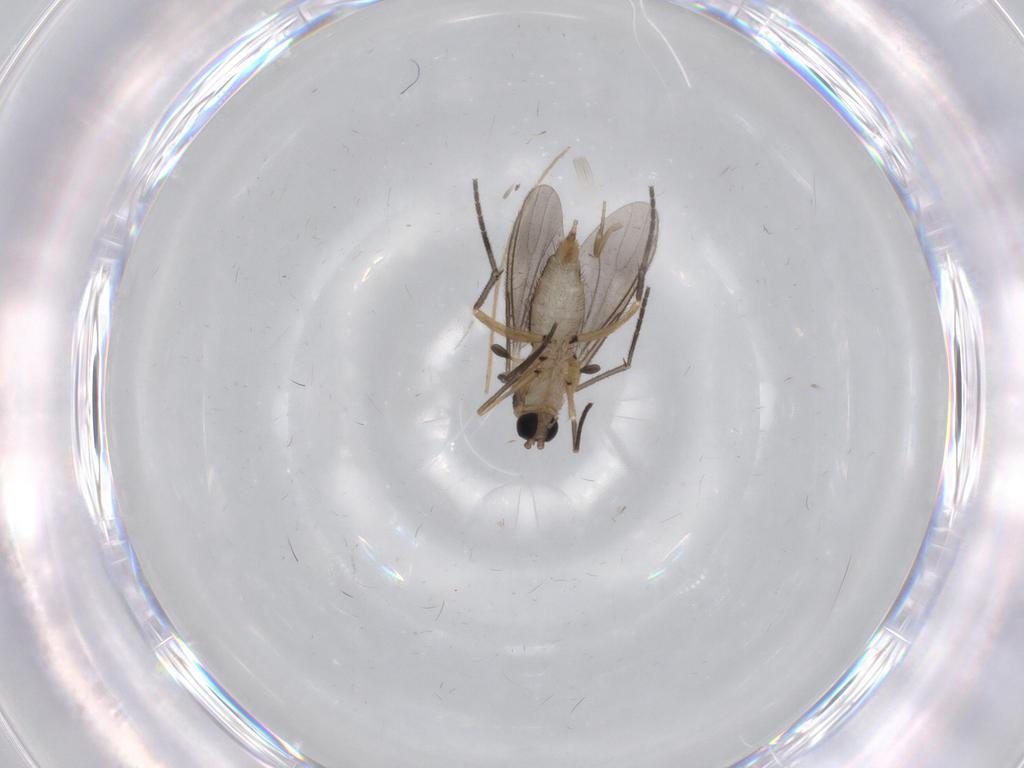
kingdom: Animalia
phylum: Arthropoda
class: Insecta
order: Diptera
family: Sciaridae
